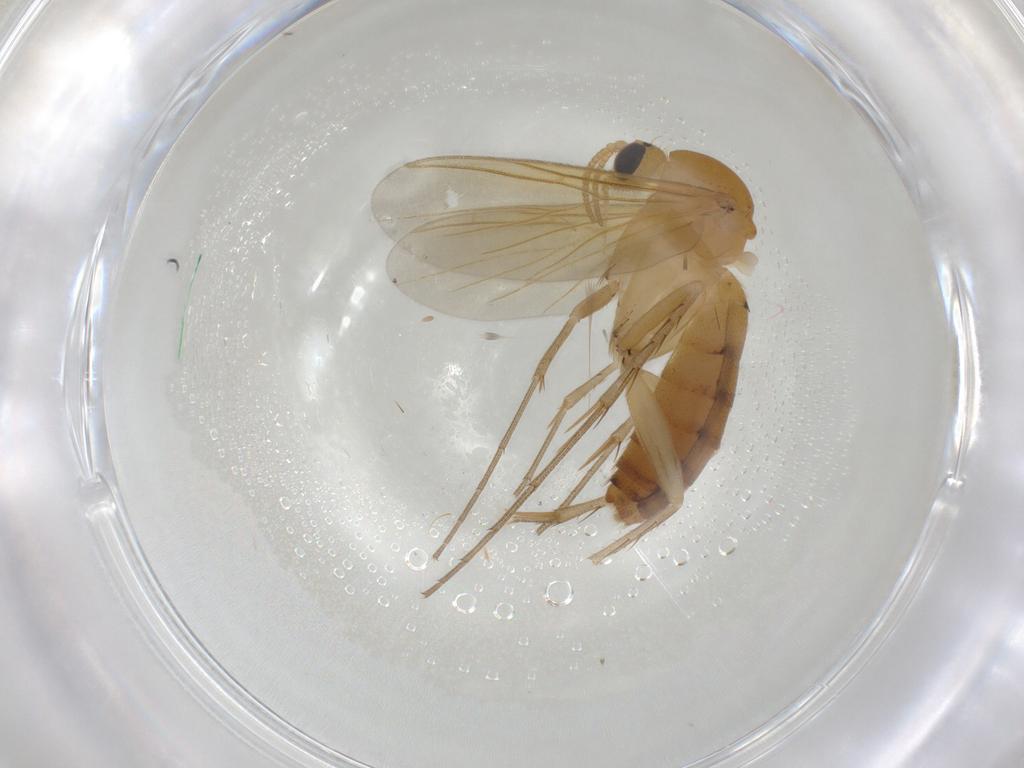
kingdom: Animalia
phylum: Arthropoda
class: Insecta
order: Diptera
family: Mycetophilidae
